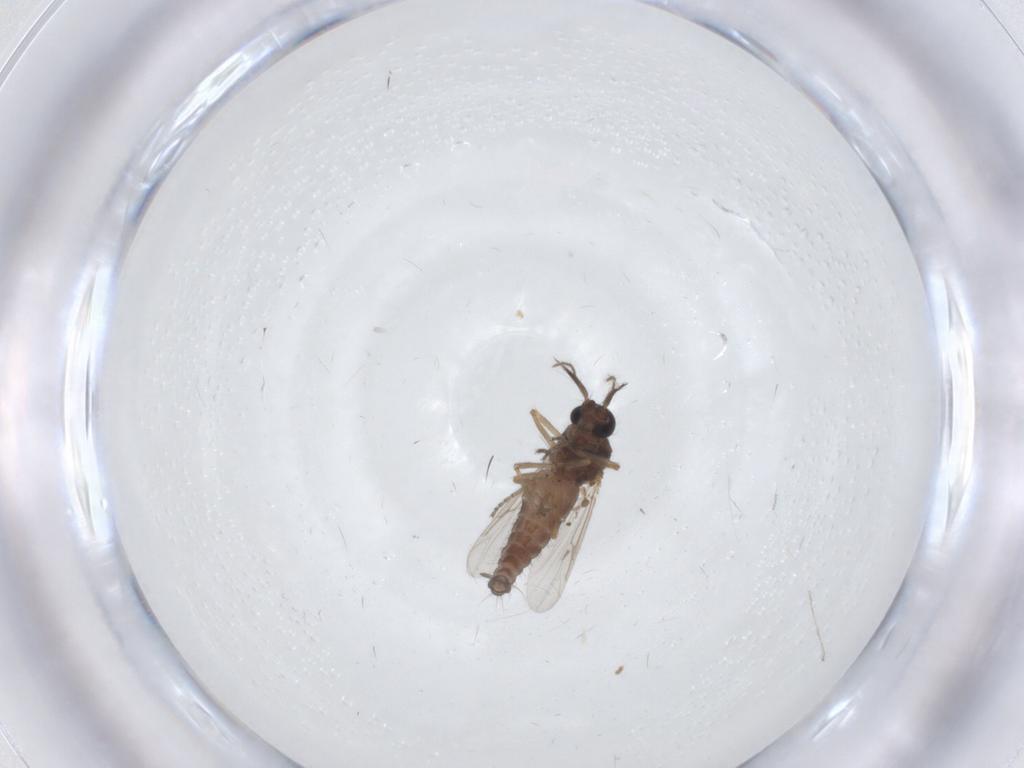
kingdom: Animalia
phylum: Arthropoda
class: Insecta
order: Diptera
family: Ceratopogonidae
